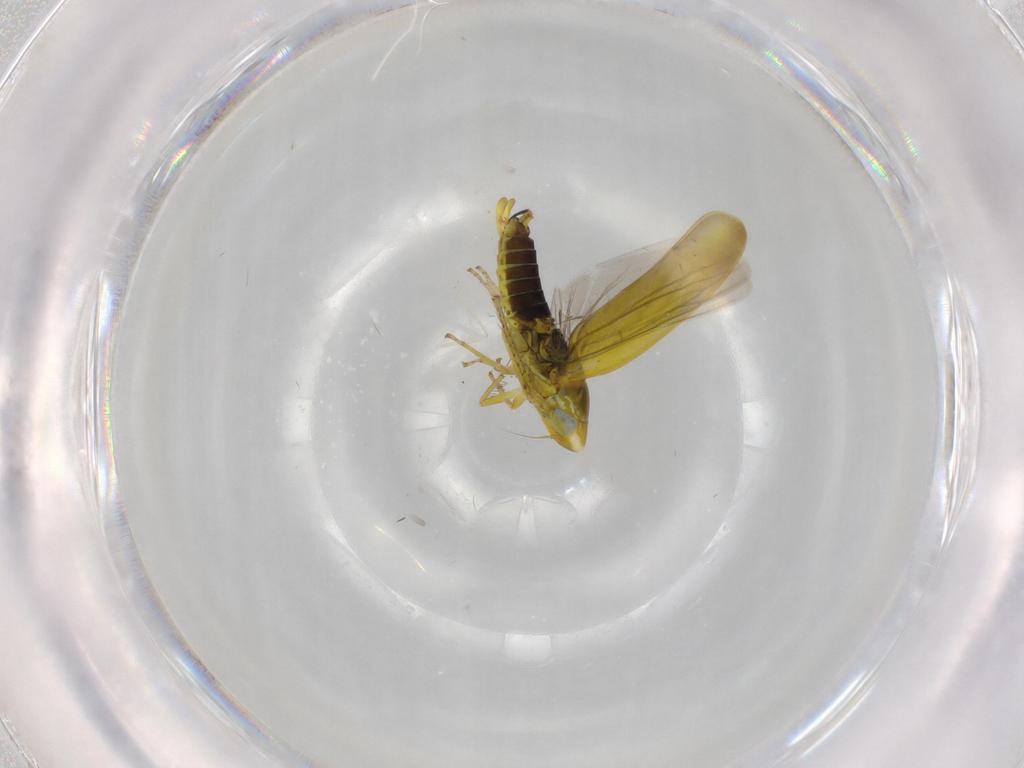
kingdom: Animalia
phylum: Arthropoda
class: Insecta
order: Hemiptera
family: Cicadellidae
